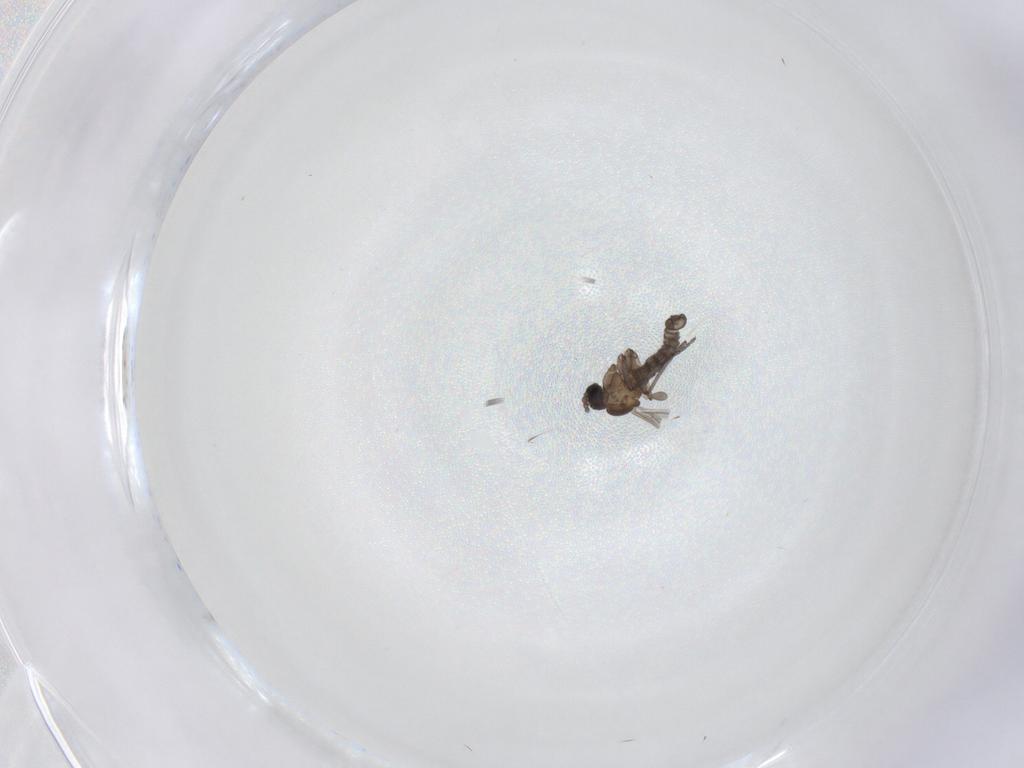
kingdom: Animalia
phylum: Arthropoda
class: Insecta
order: Diptera
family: Sciaridae
